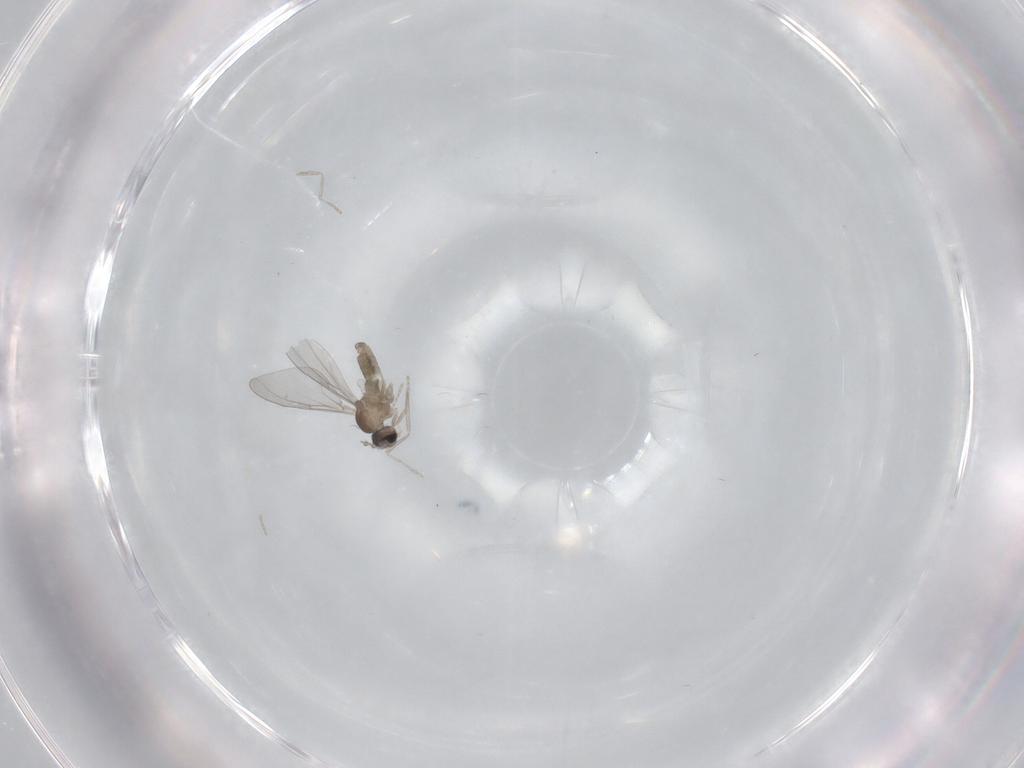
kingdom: Animalia
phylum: Arthropoda
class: Insecta
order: Diptera
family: Cecidomyiidae
